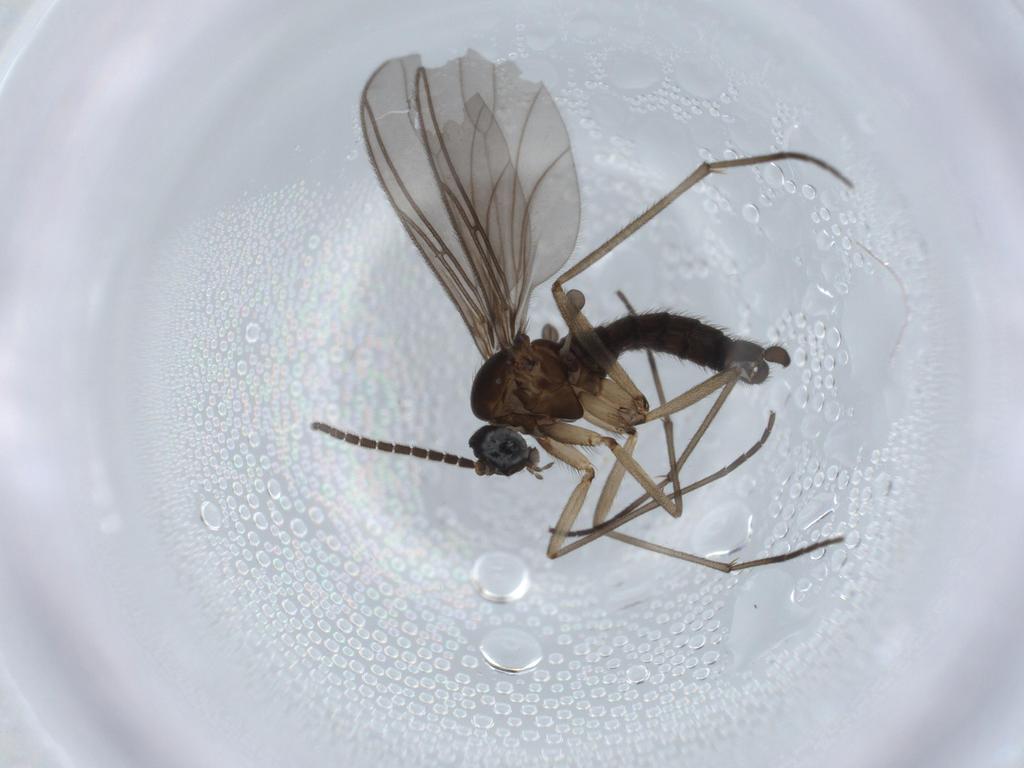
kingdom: Animalia
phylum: Arthropoda
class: Insecta
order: Diptera
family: Sciaridae
